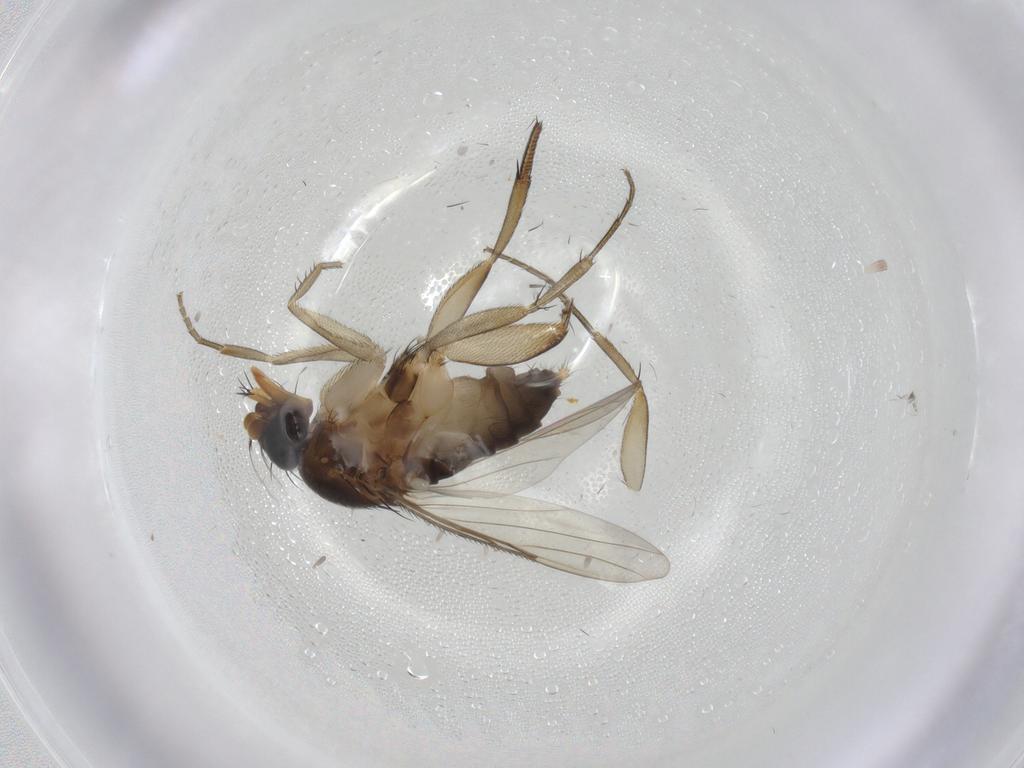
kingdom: Animalia
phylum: Arthropoda
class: Insecta
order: Diptera
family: Phoridae
